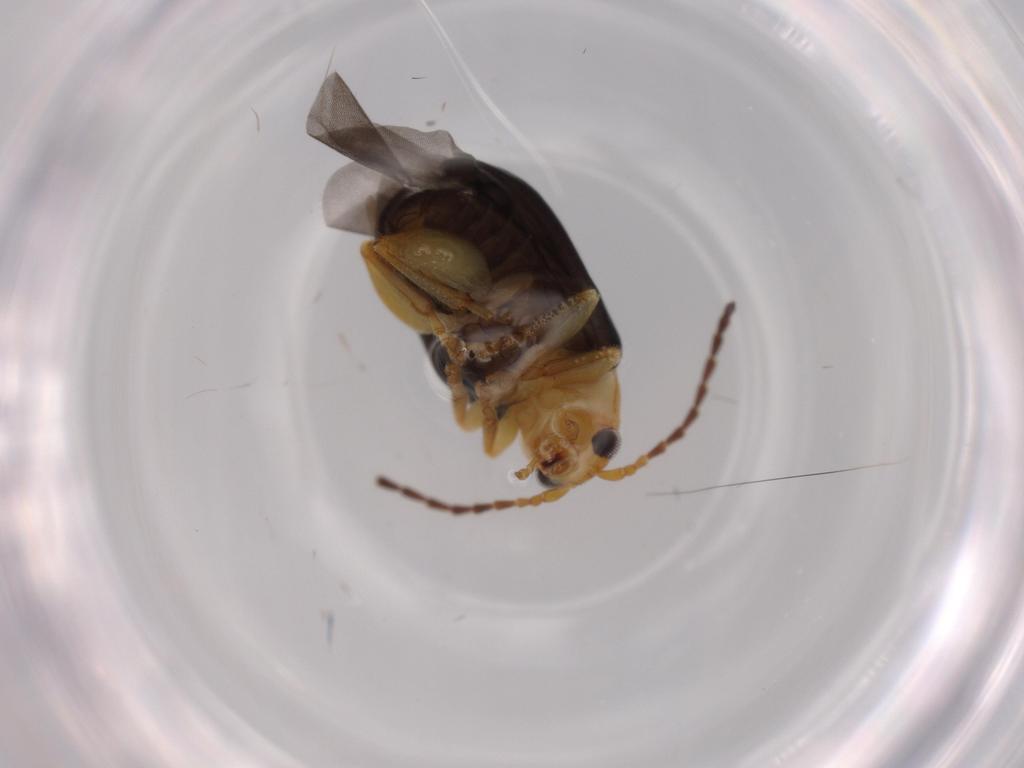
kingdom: Animalia
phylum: Arthropoda
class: Insecta
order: Coleoptera
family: Chrysomelidae
